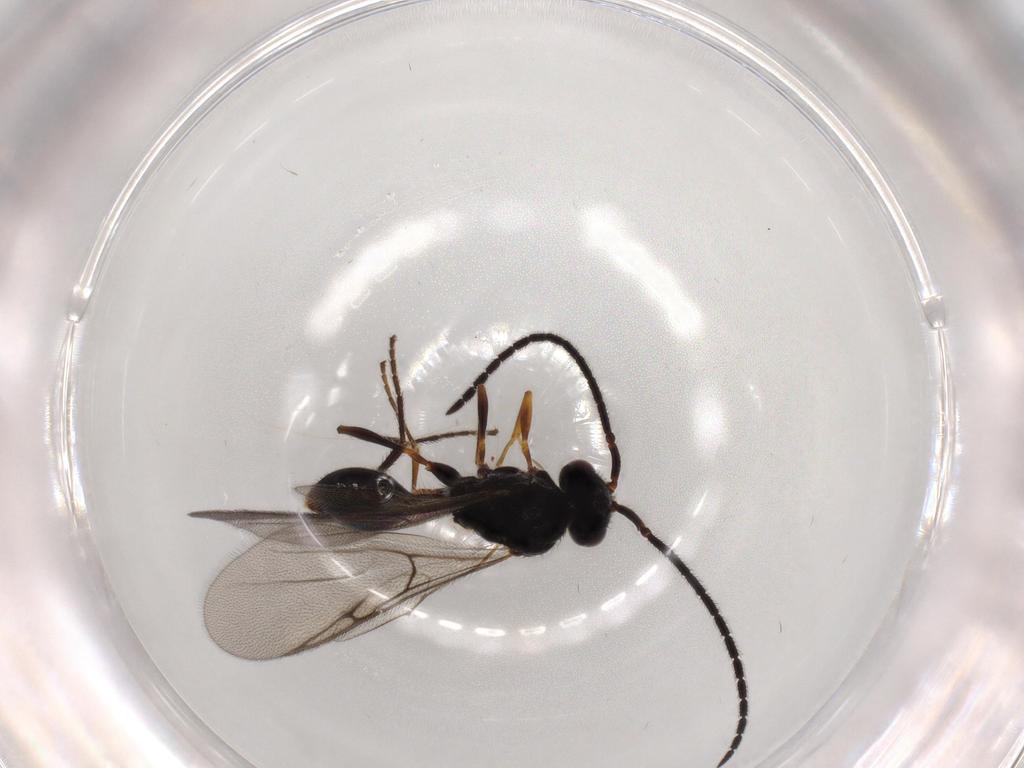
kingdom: Animalia
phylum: Arthropoda
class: Insecta
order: Hymenoptera
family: Diapriidae
